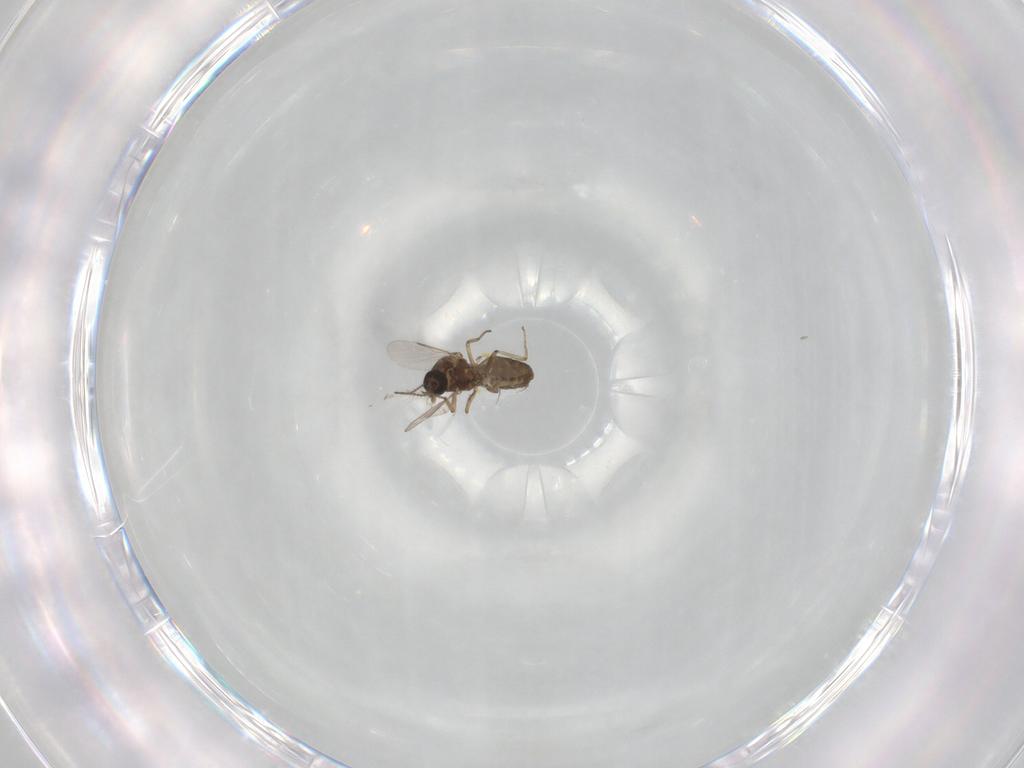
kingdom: Animalia
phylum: Arthropoda
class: Insecta
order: Diptera
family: Ceratopogonidae
